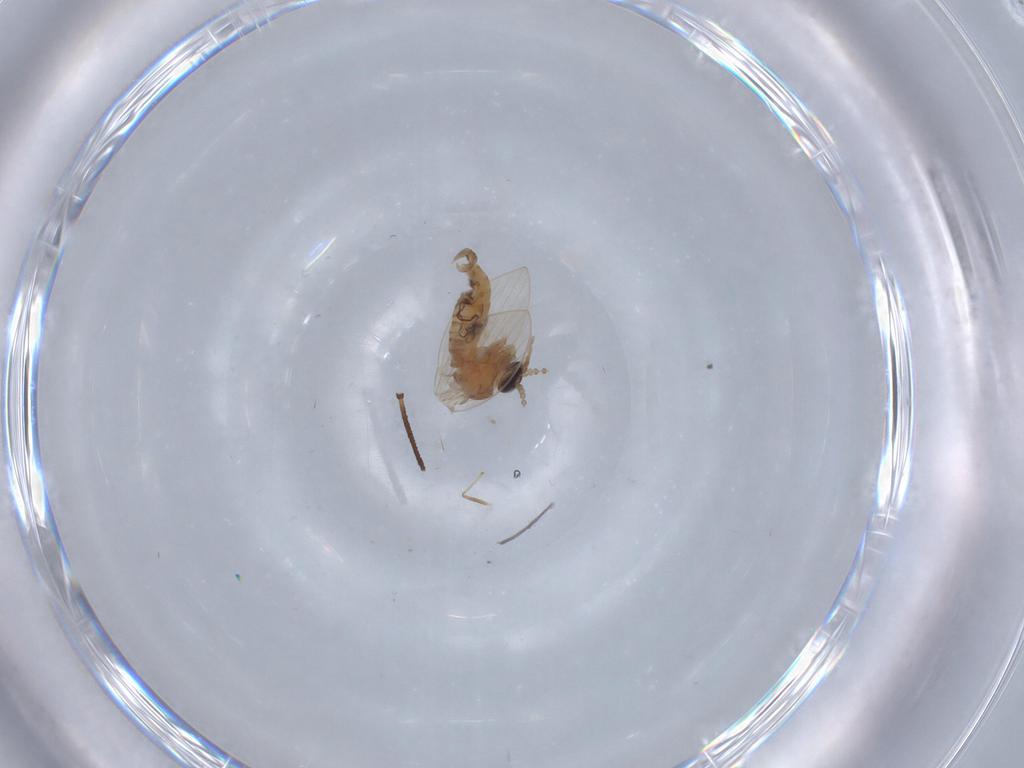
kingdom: Animalia
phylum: Arthropoda
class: Insecta
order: Diptera
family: Psychodidae
